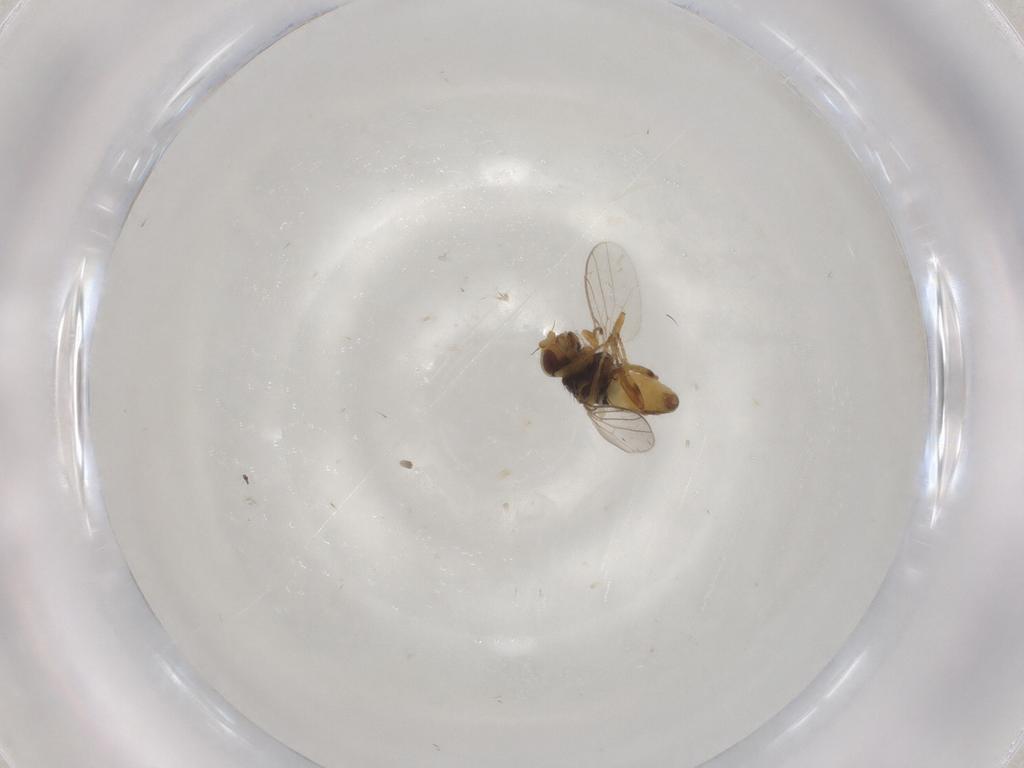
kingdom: Animalia
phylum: Arthropoda
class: Insecta
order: Diptera
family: Chloropidae
